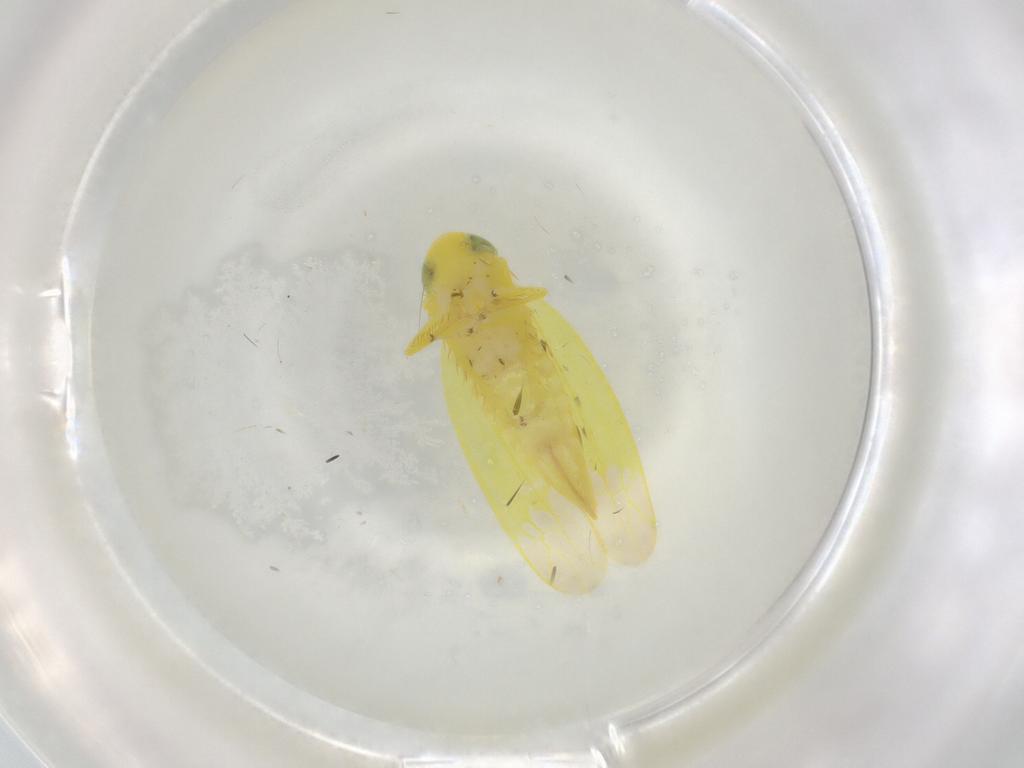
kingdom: Animalia
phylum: Arthropoda
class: Insecta
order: Hemiptera
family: Cicadellidae
